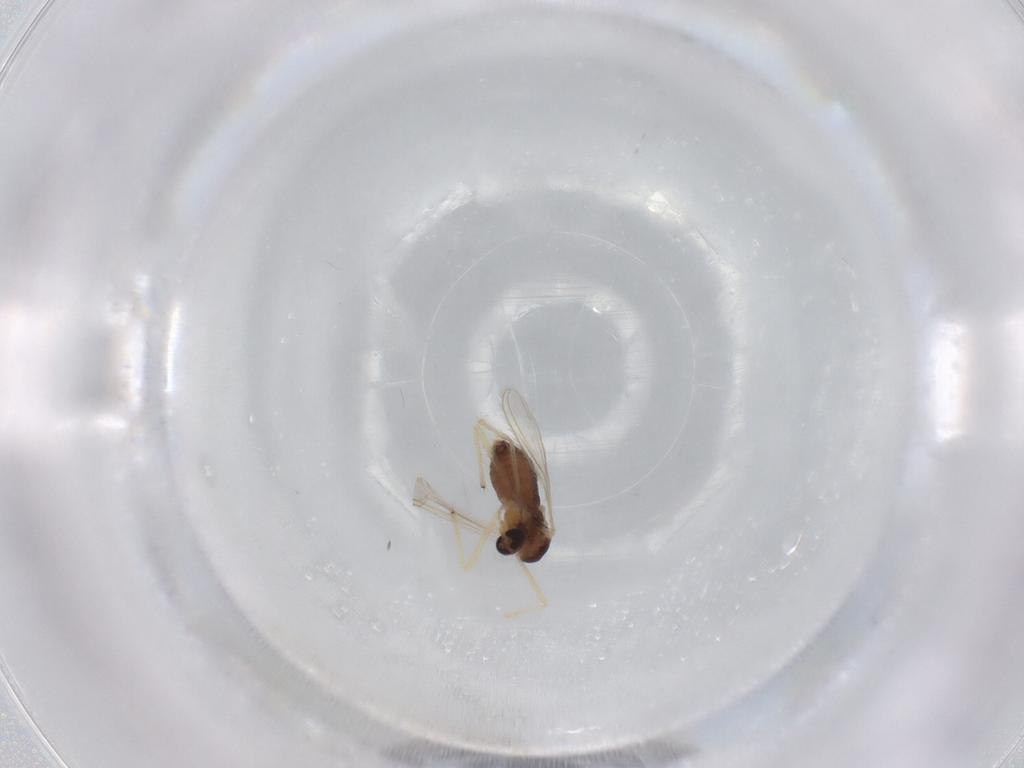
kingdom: Animalia
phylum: Arthropoda
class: Insecta
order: Diptera
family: Chironomidae
